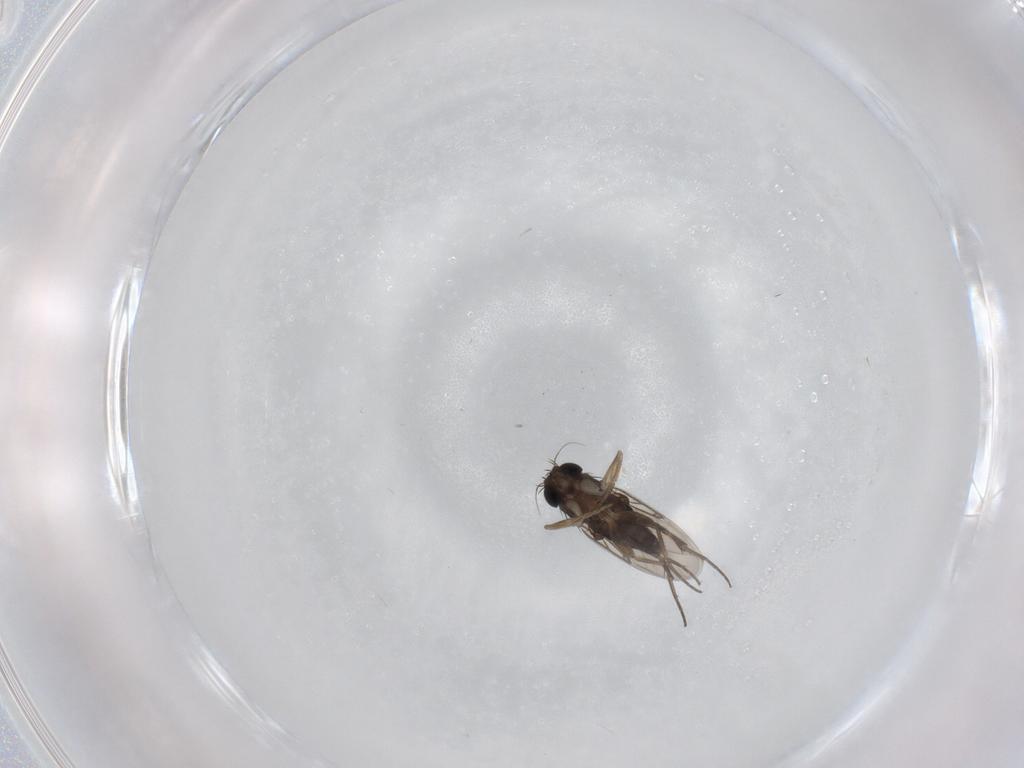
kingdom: Animalia
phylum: Arthropoda
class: Insecta
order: Diptera
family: Phoridae
